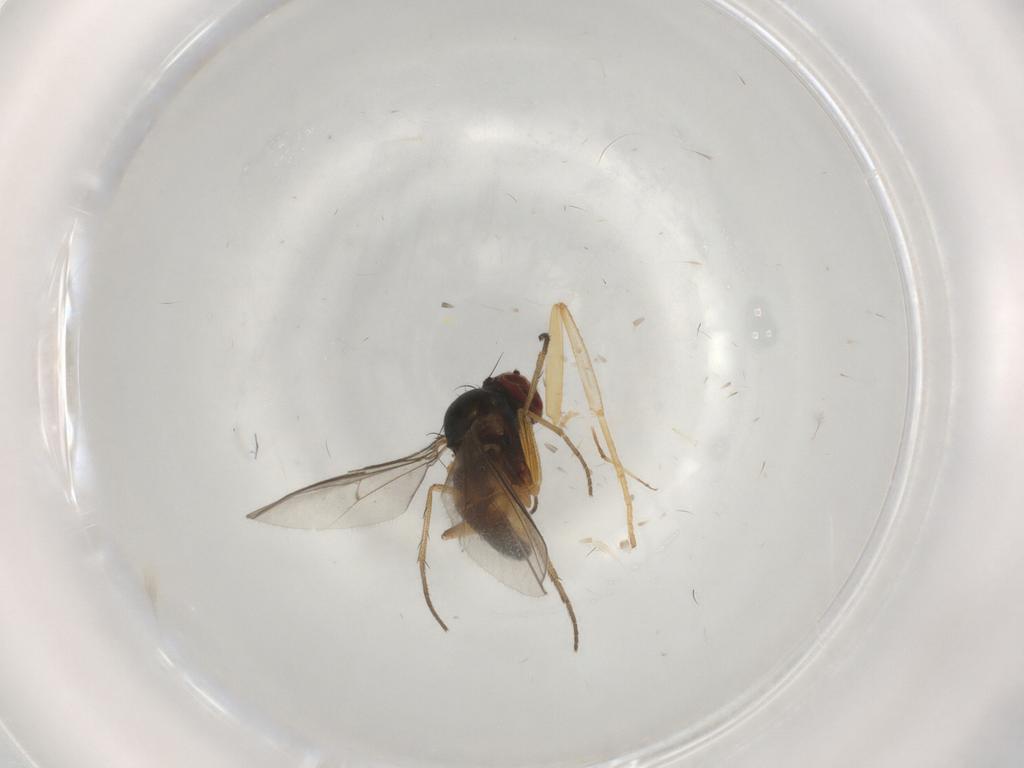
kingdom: Animalia
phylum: Arthropoda
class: Insecta
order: Diptera
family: Dolichopodidae
